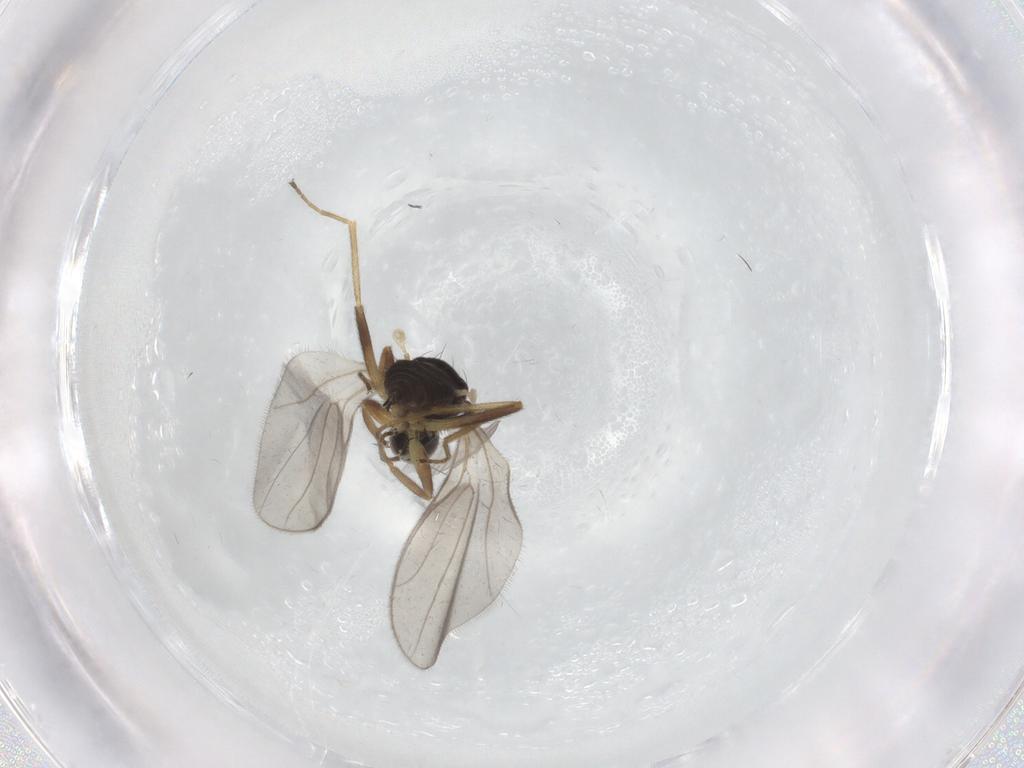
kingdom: Animalia
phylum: Arthropoda
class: Insecta
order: Diptera
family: Hybotidae
